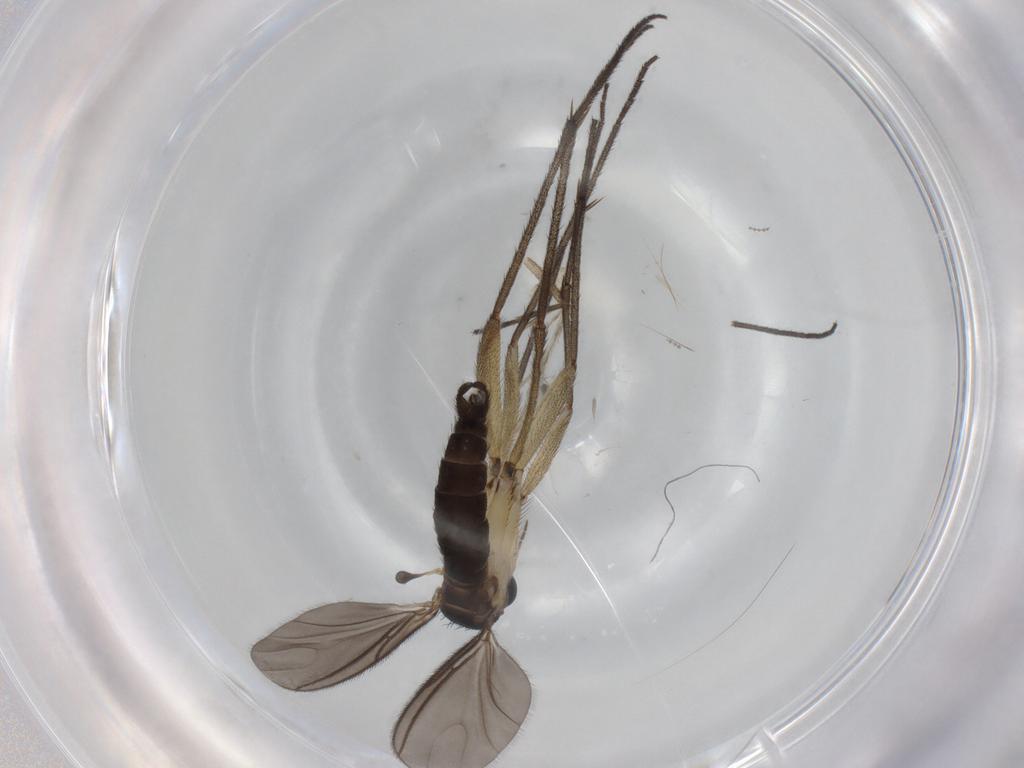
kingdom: Animalia
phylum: Arthropoda
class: Insecta
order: Diptera
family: Sciaridae
